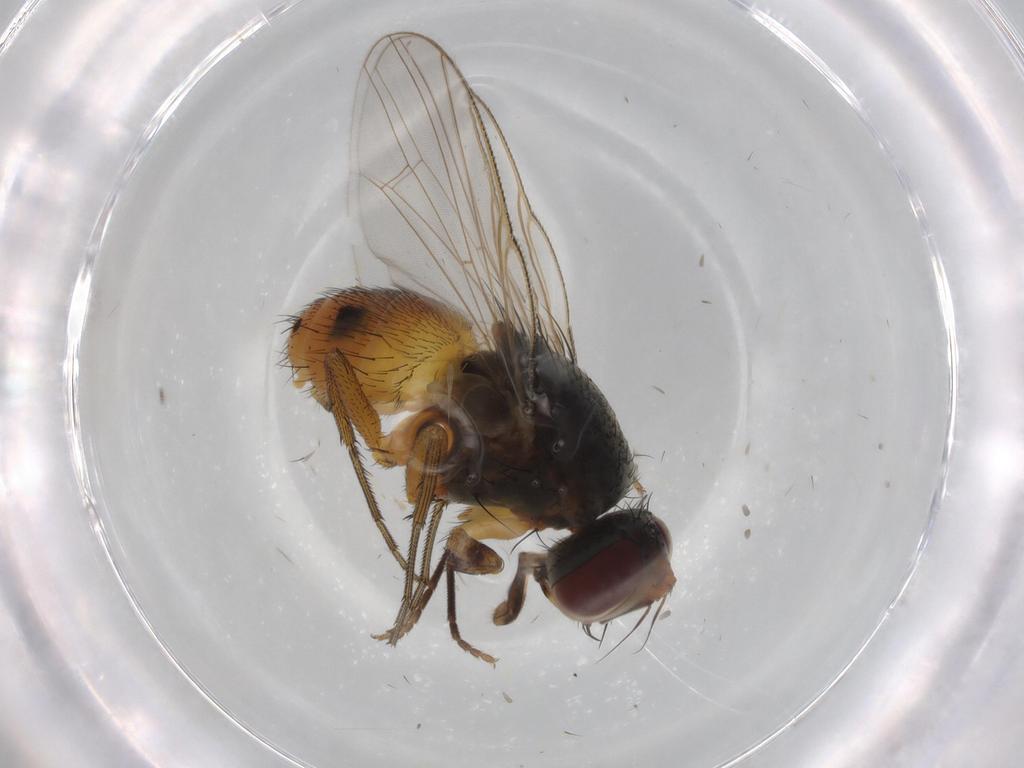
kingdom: Animalia
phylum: Arthropoda
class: Insecta
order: Diptera
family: Muscidae
